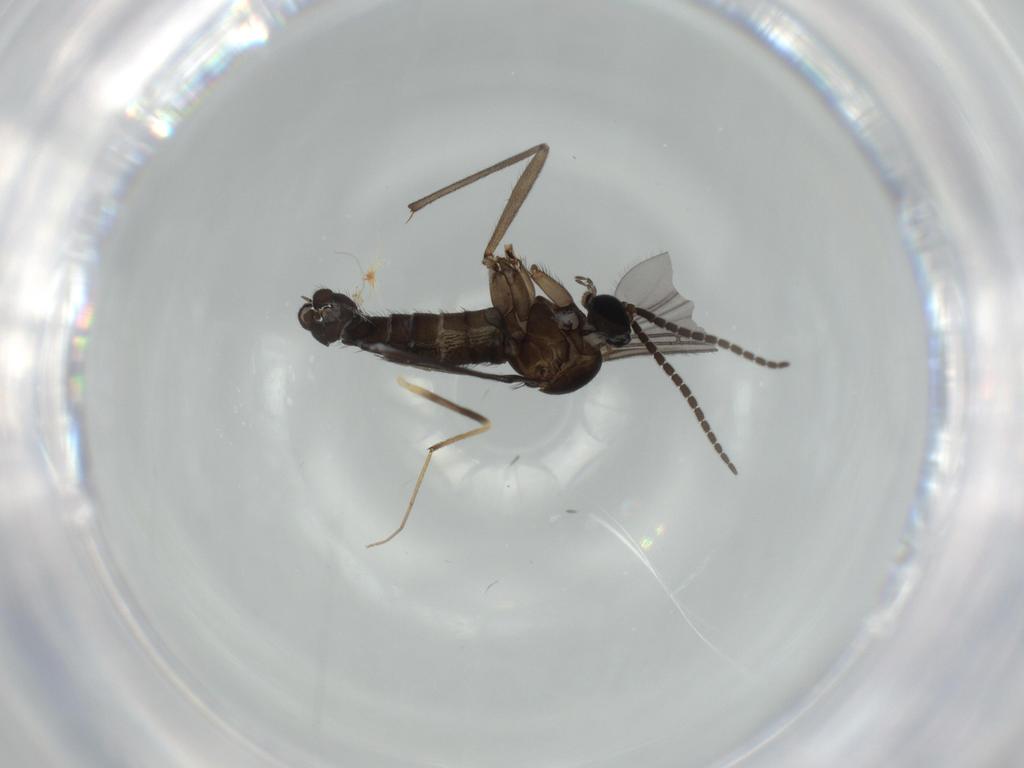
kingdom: Animalia
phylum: Arthropoda
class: Insecta
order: Diptera
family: Sciaridae
